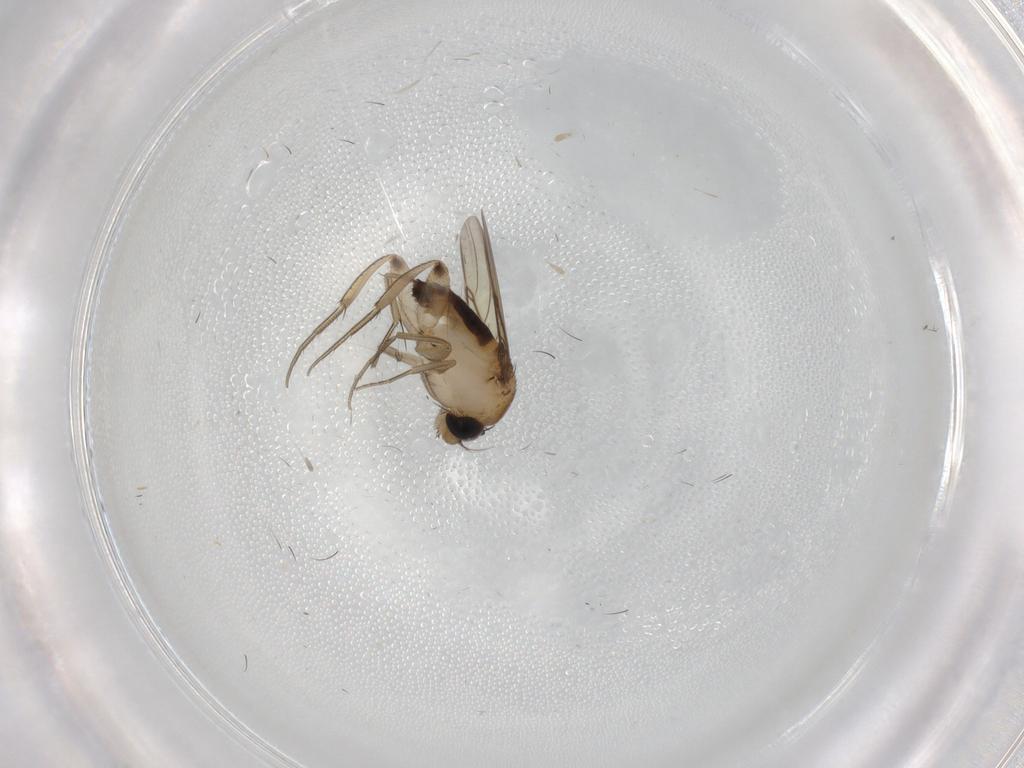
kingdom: Animalia
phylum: Arthropoda
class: Insecta
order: Diptera
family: Phoridae
